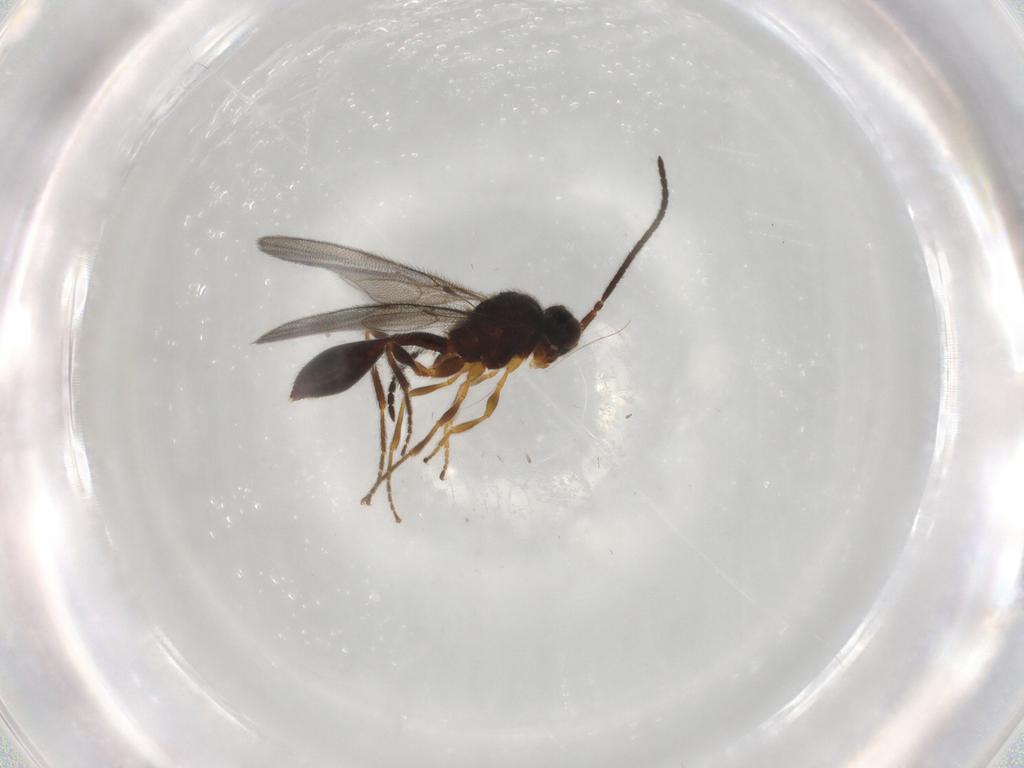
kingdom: Animalia
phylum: Arthropoda
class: Insecta
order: Hymenoptera
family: Diapriidae
